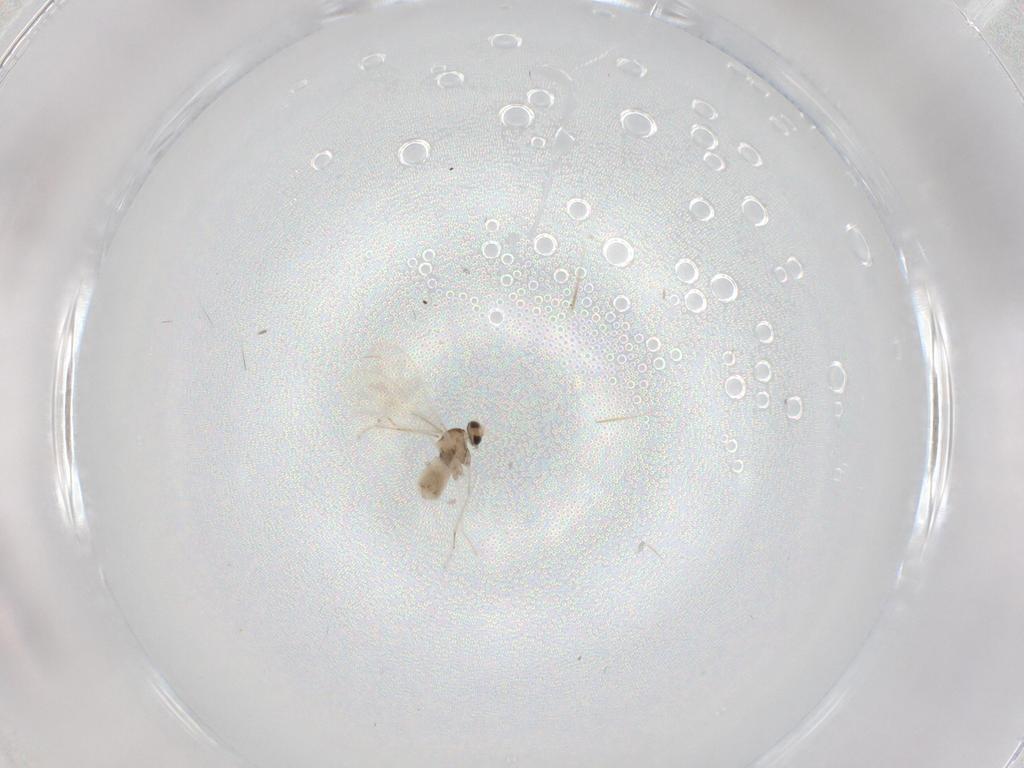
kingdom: Animalia
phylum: Arthropoda
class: Insecta
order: Diptera
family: Cecidomyiidae
